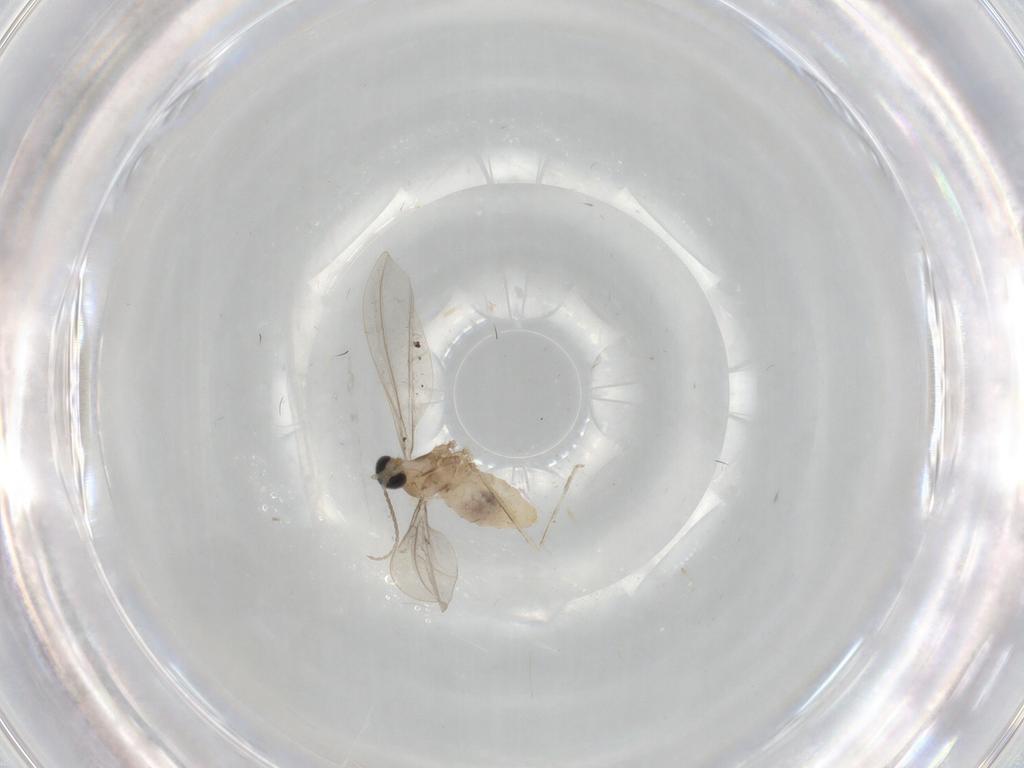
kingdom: Animalia
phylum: Arthropoda
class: Insecta
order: Diptera
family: Cecidomyiidae
